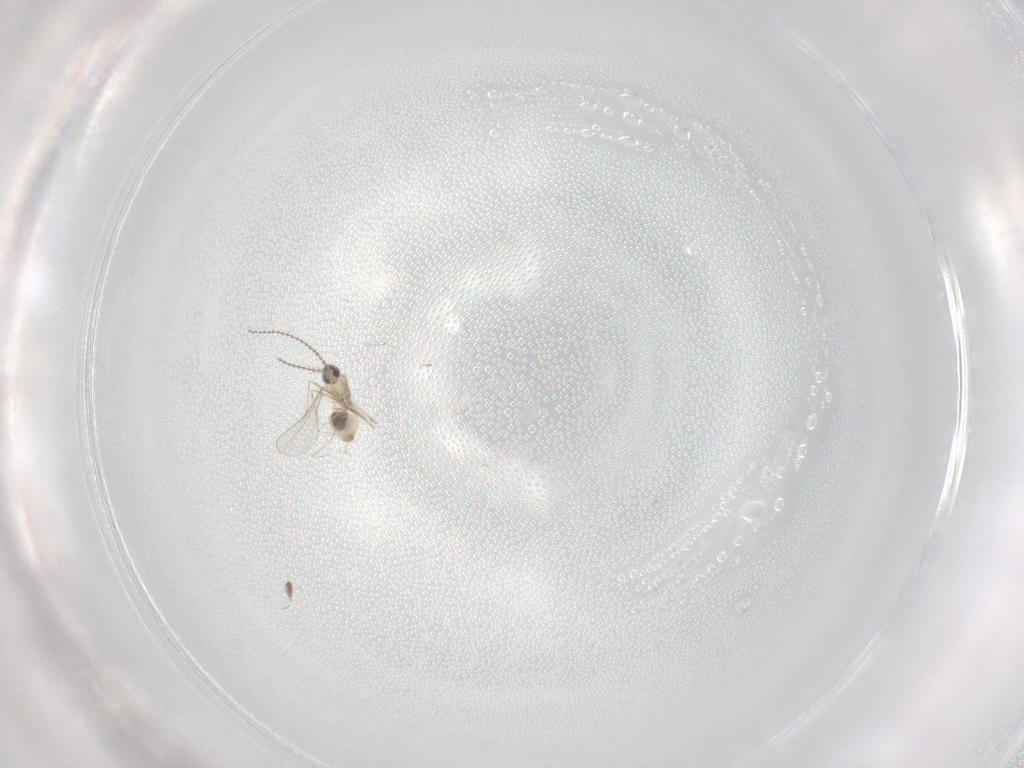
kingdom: Animalia
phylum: Arthropoda
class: Insecta
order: Diptera
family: Cecidomyiidae
